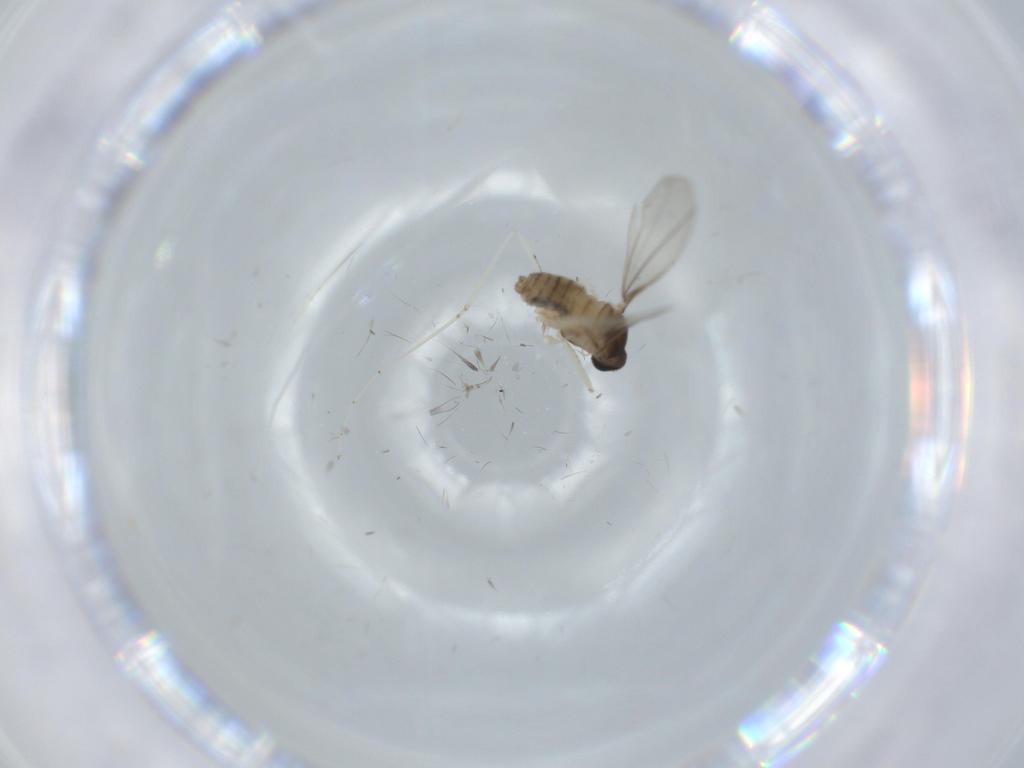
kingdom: Animalia
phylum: Arthropoda
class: Insecta
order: Diptera
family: Cecidomyiidae
